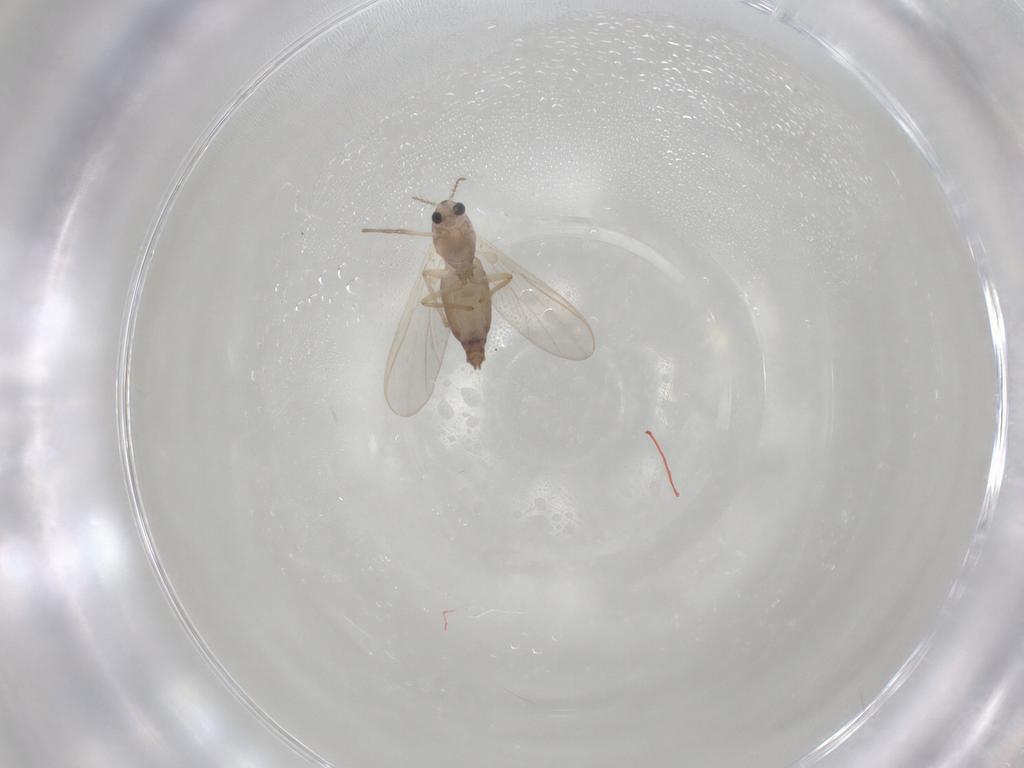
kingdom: Animalia
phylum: Arthropoda
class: Insecta
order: Diptera
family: Chironomidae
